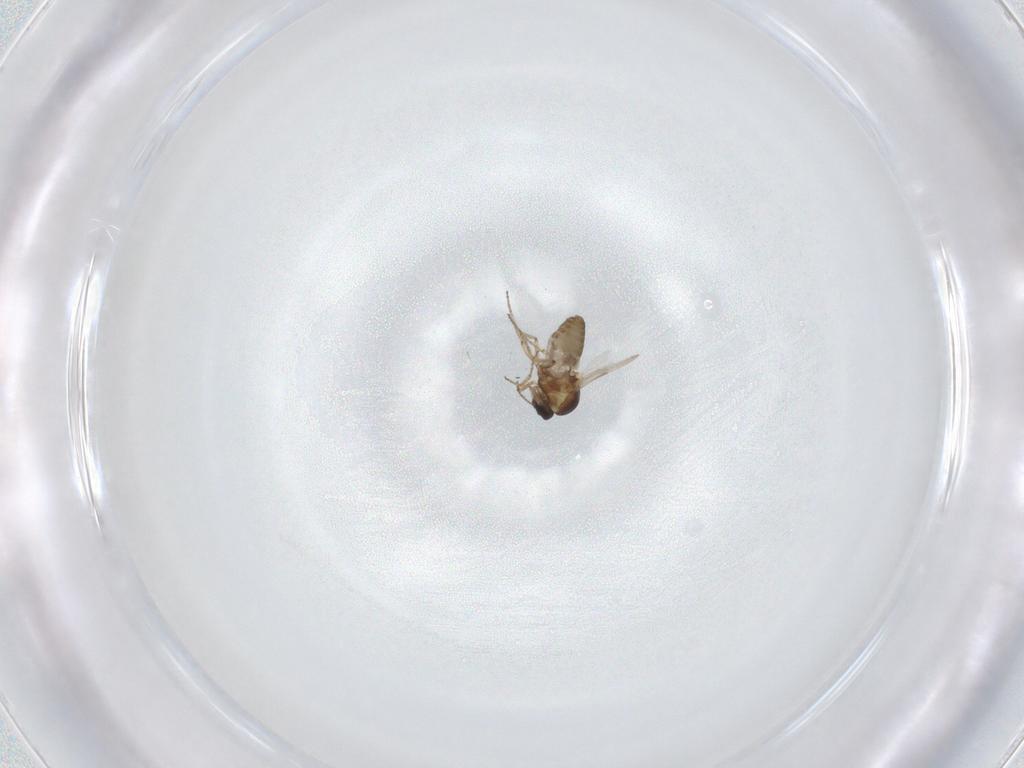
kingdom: Animalia
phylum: Arthropoda
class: Insecta
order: Diptera
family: Ceratopogonidae
